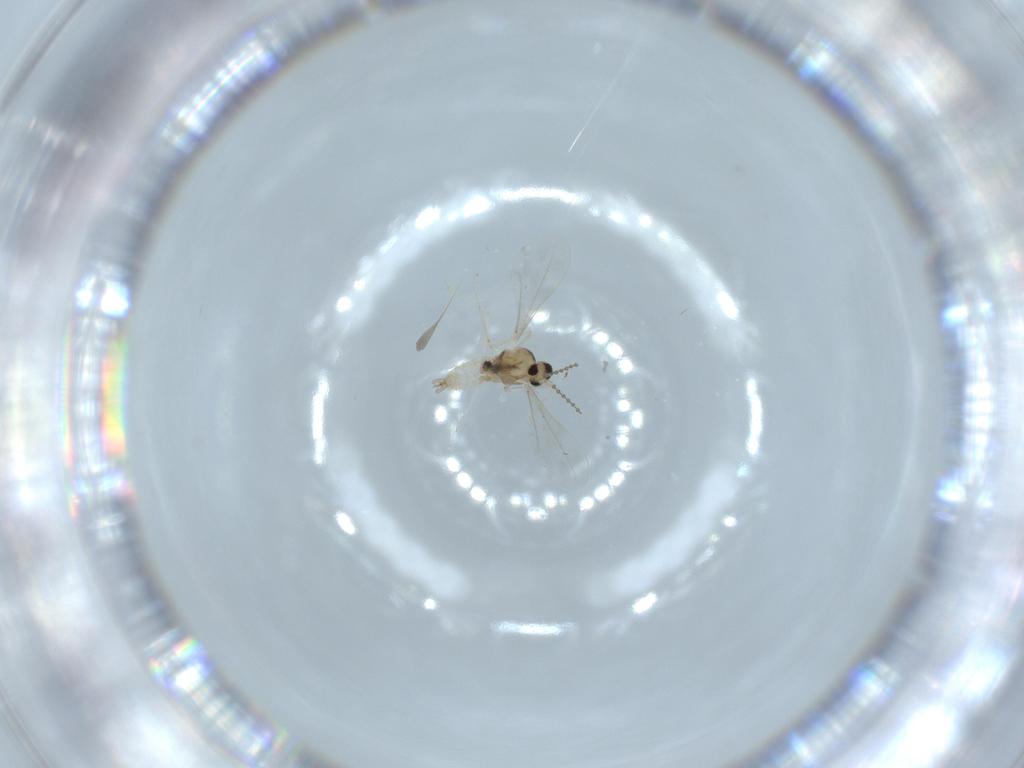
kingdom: Animalia
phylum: Arthropoda
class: Insecta
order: Diptera
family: Cecidomyiidae
